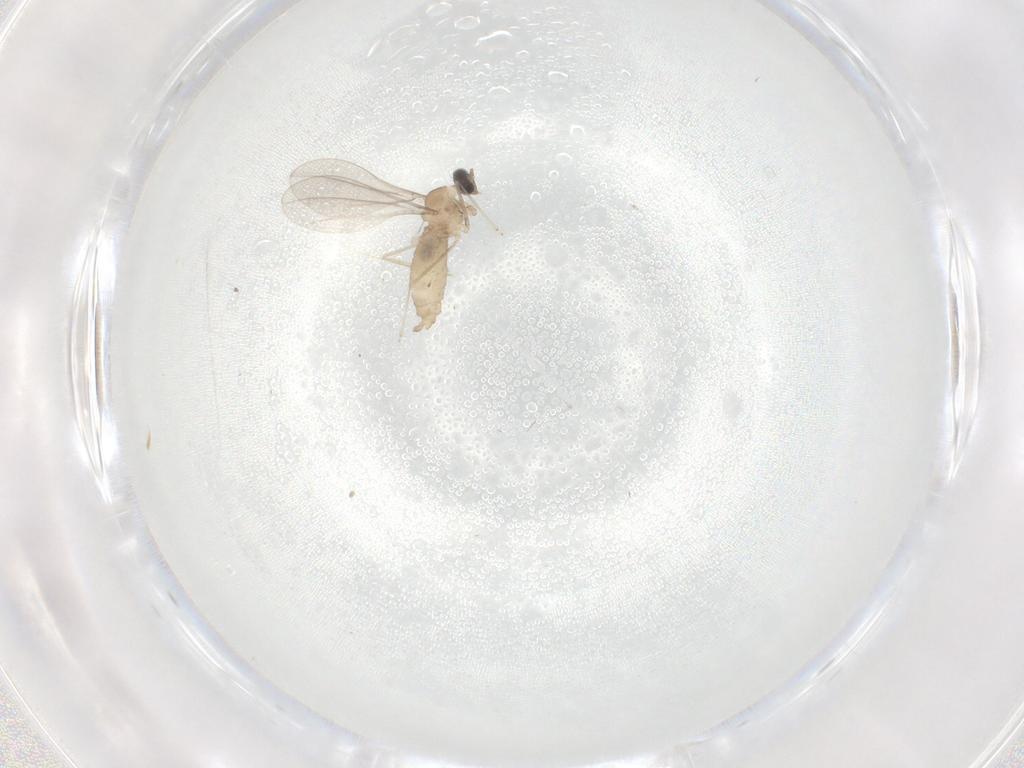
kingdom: Animalia
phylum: Arthropoda
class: Insecta
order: Diptera
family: Cecidomyiidae
